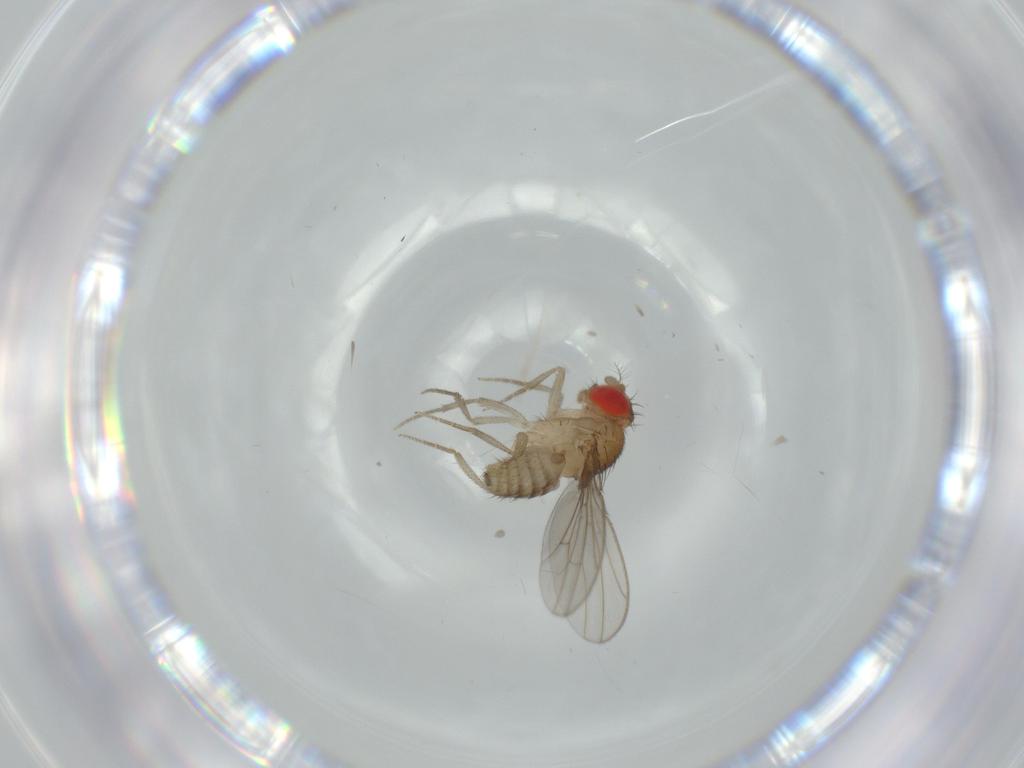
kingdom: Animalia
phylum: Arthropoda
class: Insecta
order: Diptera
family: Drosophilidae
